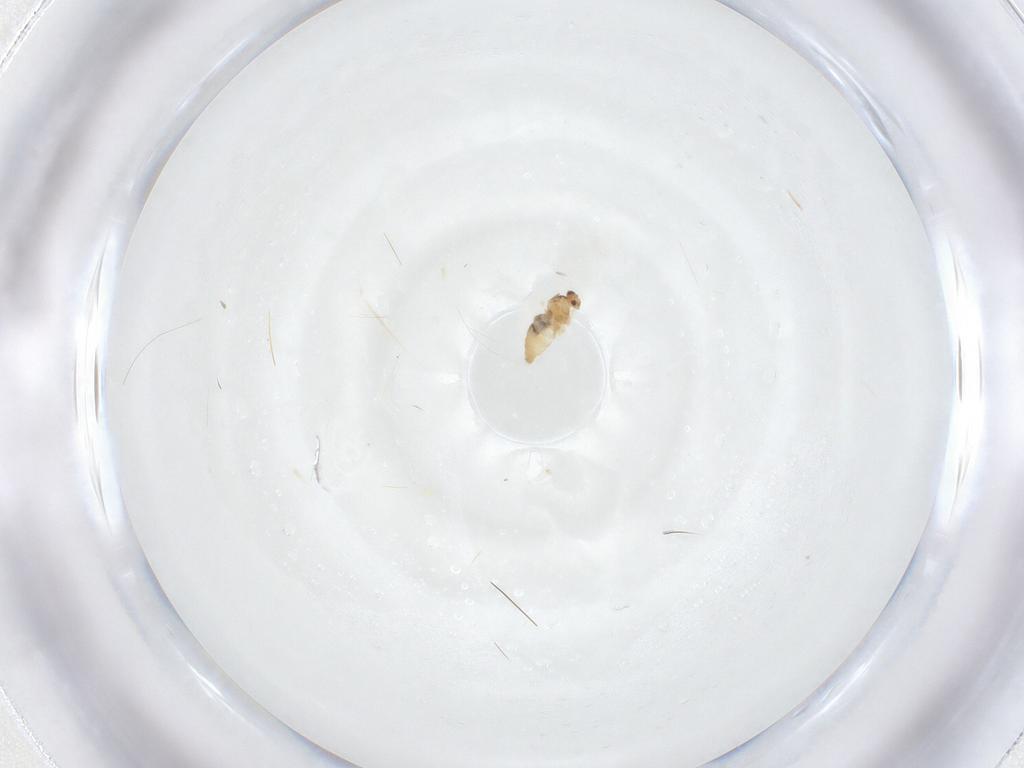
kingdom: Animalia
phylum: Arthropoda
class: Insecta
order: Diptera
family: Cecidomyiidae
